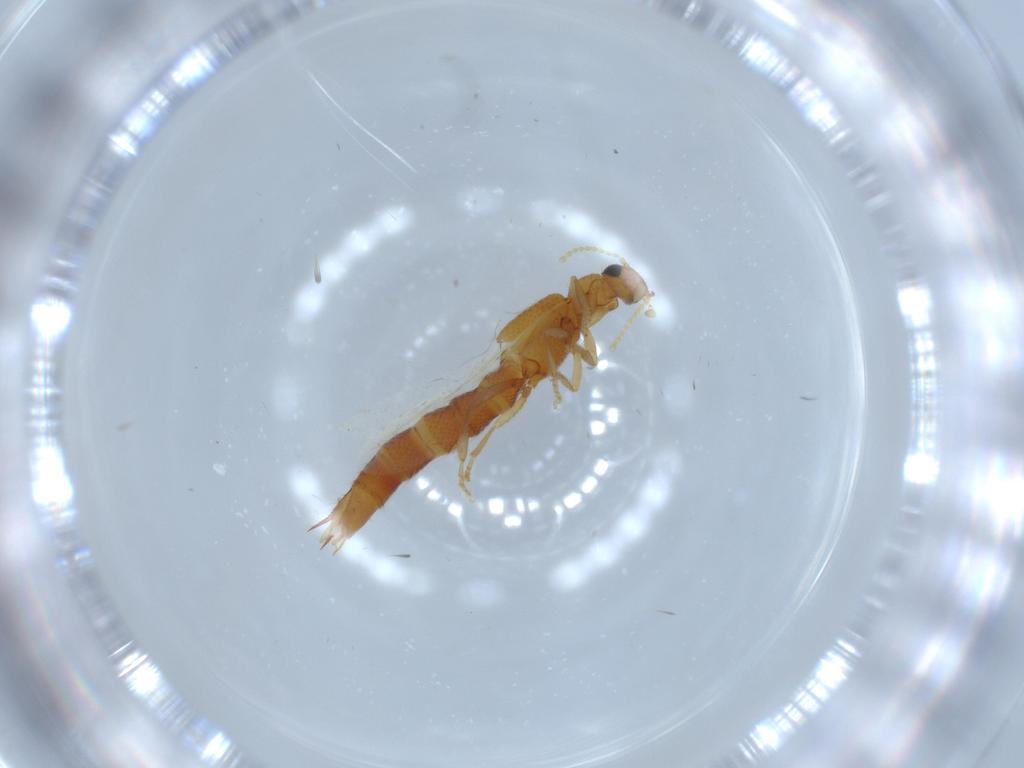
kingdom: Animalia
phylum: Arthropoda
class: Insecta
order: Coleoptera
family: Staphylinidae
